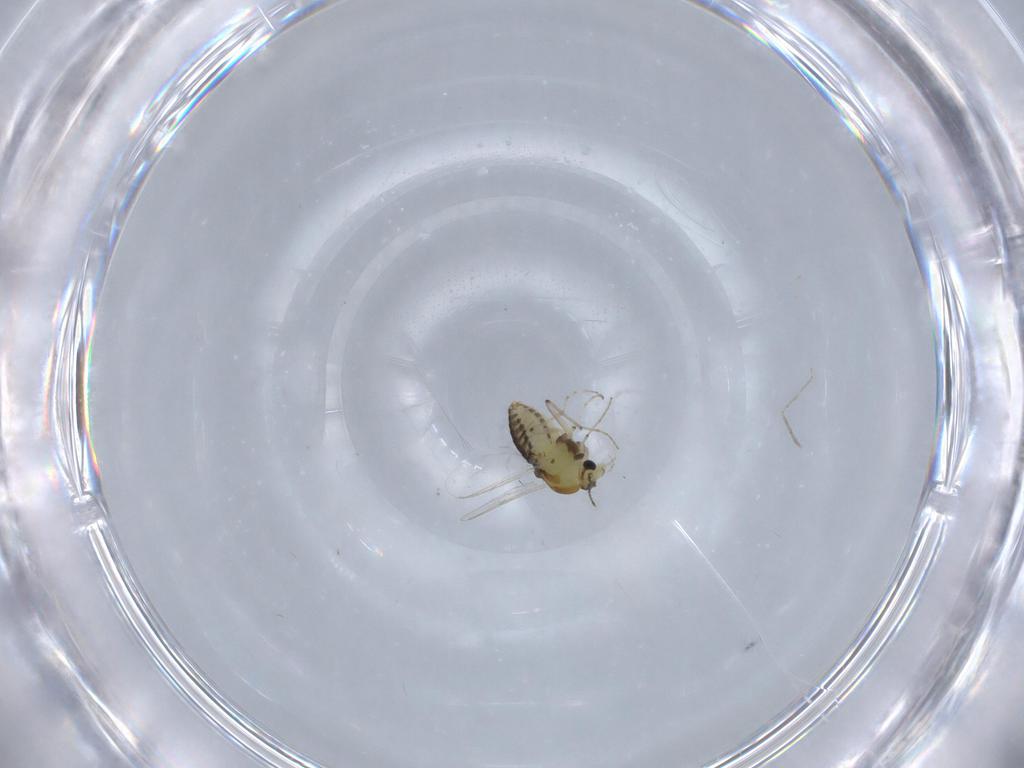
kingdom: Animalia
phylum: Arthropoda
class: Insecta
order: Diptera
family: Chironomidae
